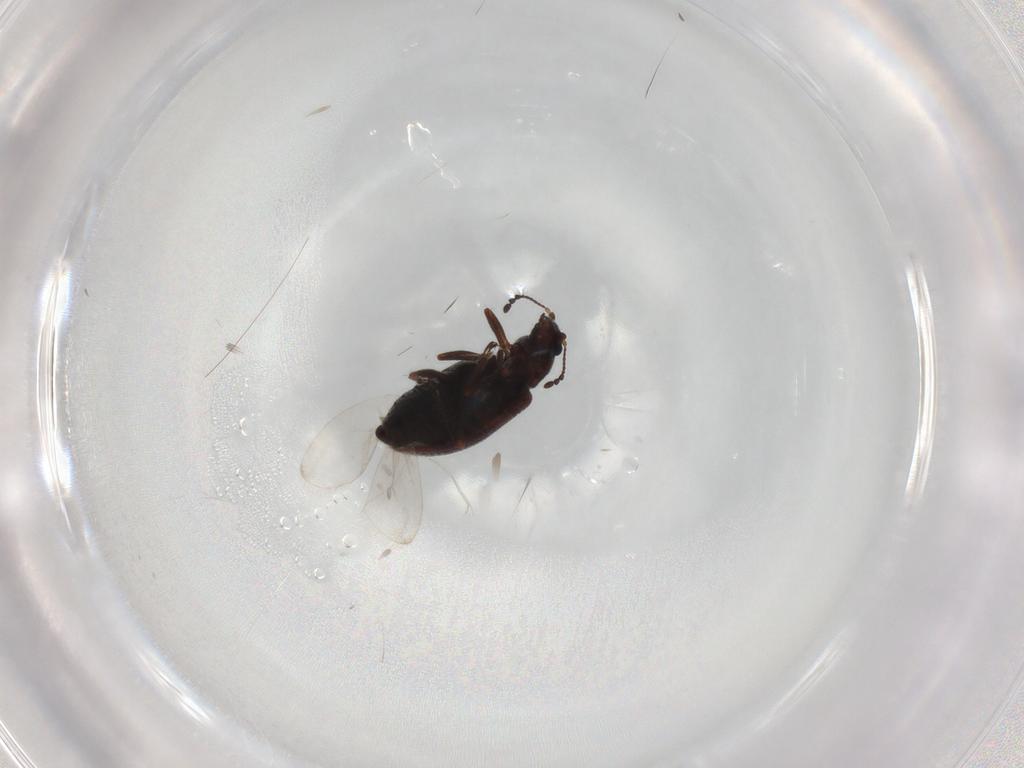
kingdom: Animalia
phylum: Arthropoda
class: Insecta
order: Coleoptera
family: Latridiidae
